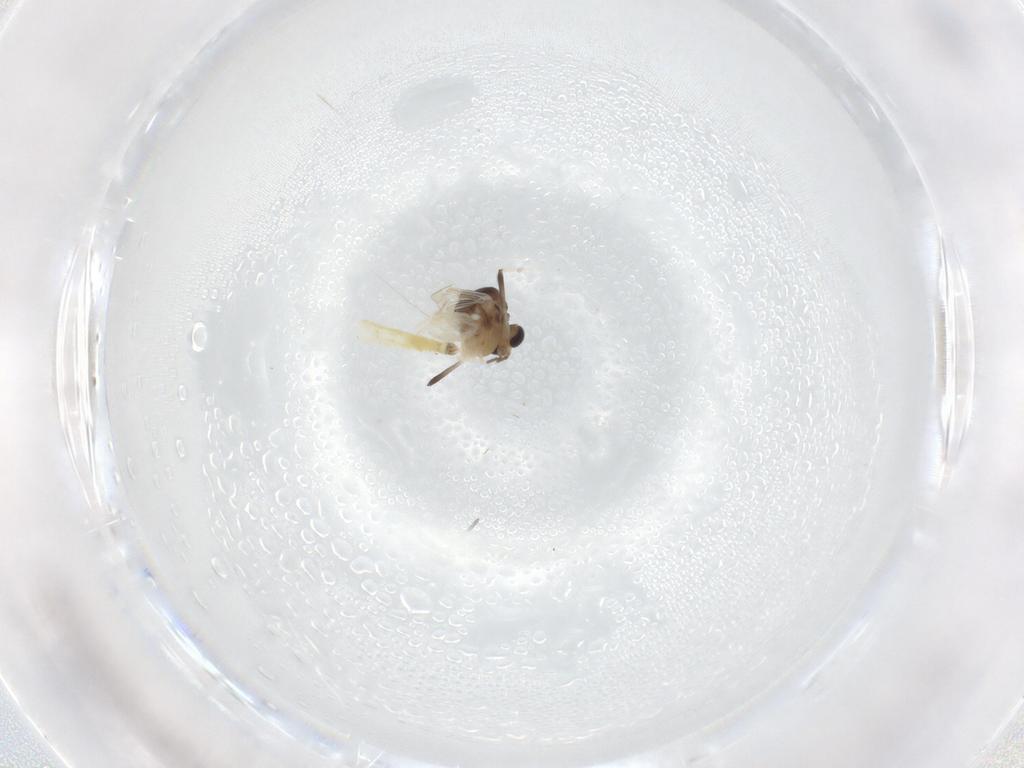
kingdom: Animalia
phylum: Arthropoda
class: Insecta
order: Diptera
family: Chironomidae
